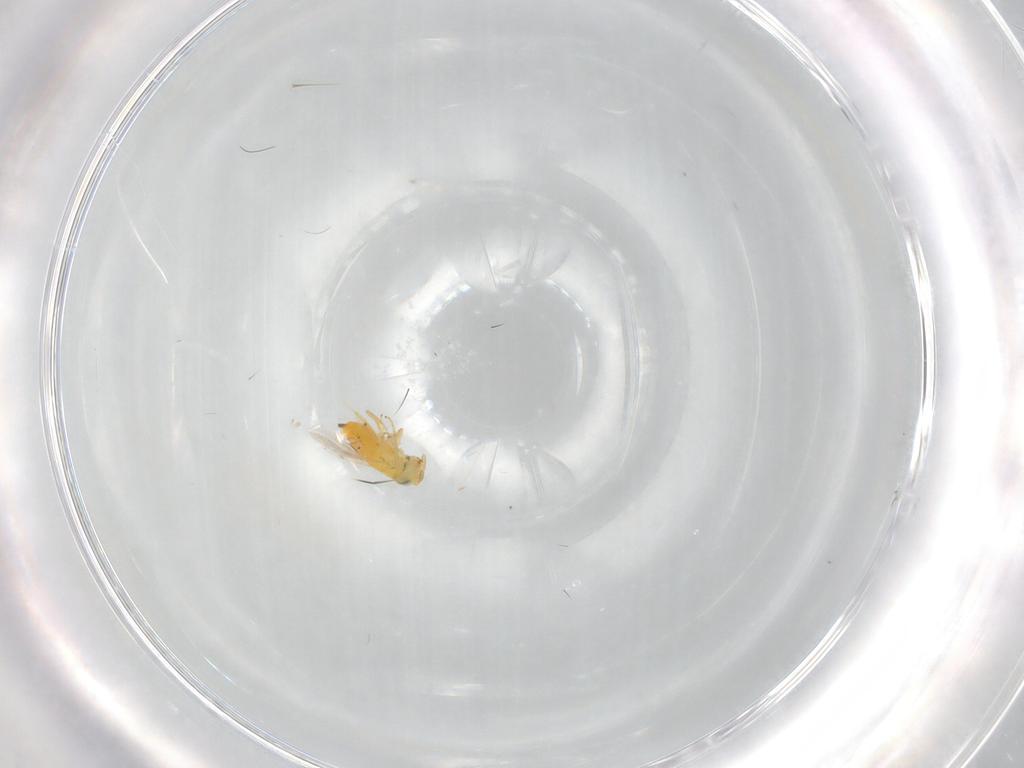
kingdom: Animalia
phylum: Arthropoda
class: Insecta
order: Hymenoptera
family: Encyrtidae
